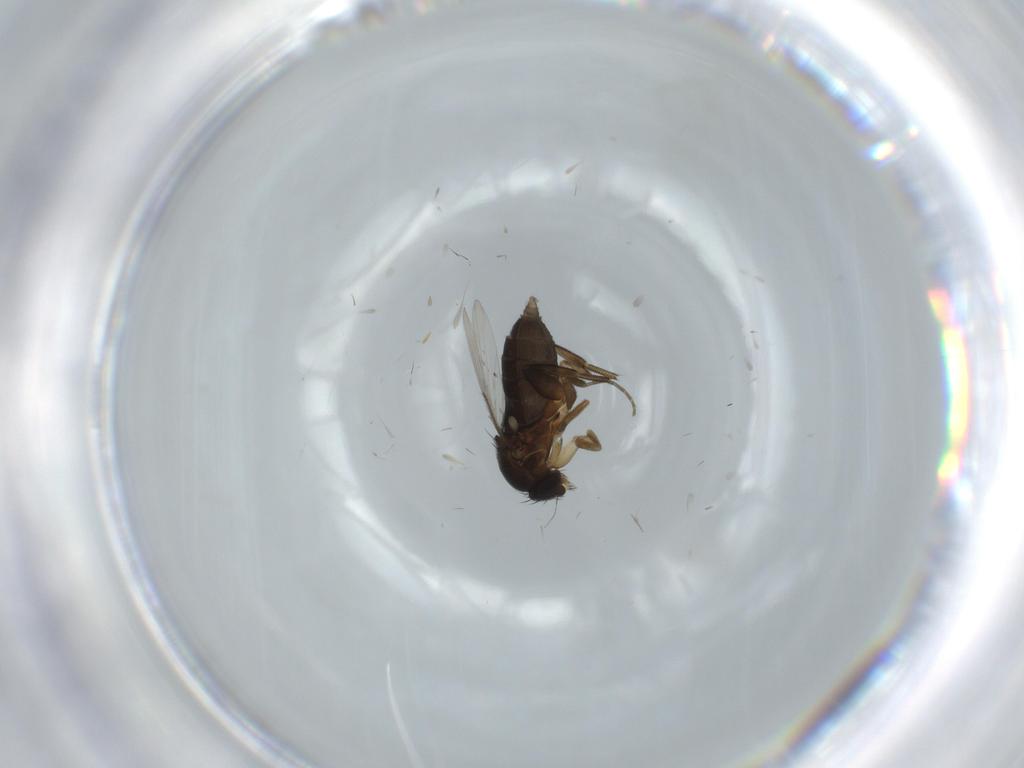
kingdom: Animalia
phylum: Arthropoda
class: Insecta
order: Diptera
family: Phoridae
